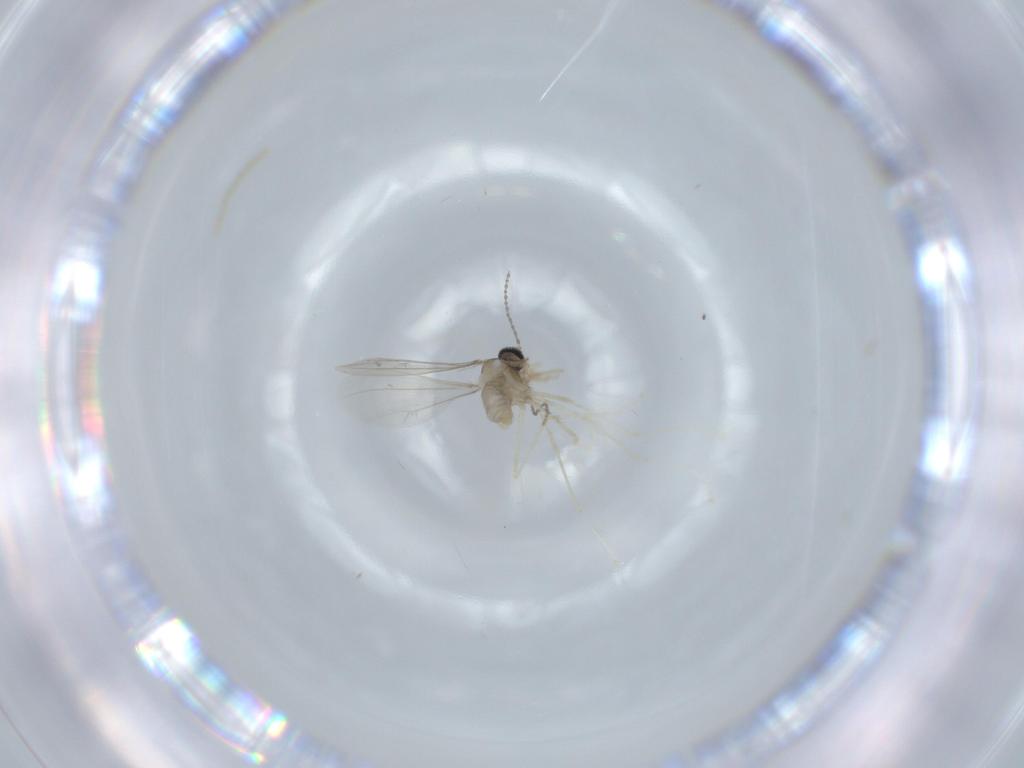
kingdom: Animalia
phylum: Arthropoda
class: Insecta
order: Diptera
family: Cecidomyiidae
